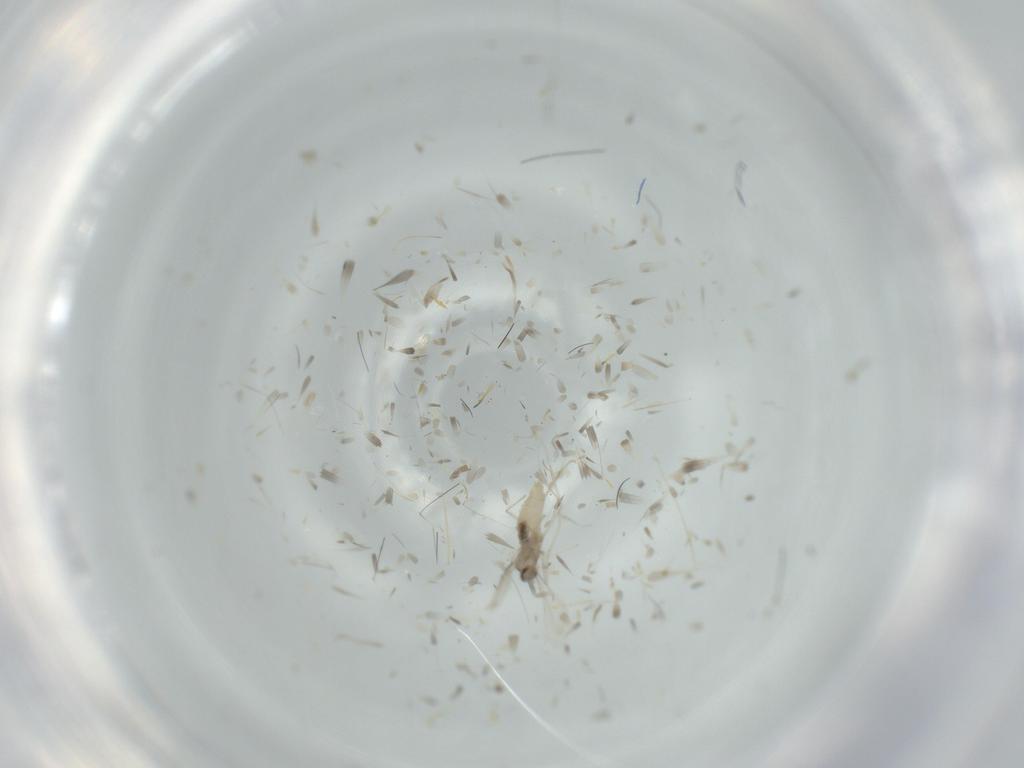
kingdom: Animalia
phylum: Arthropoda
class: Insecta
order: Diptera
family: Cecidomyiidae
